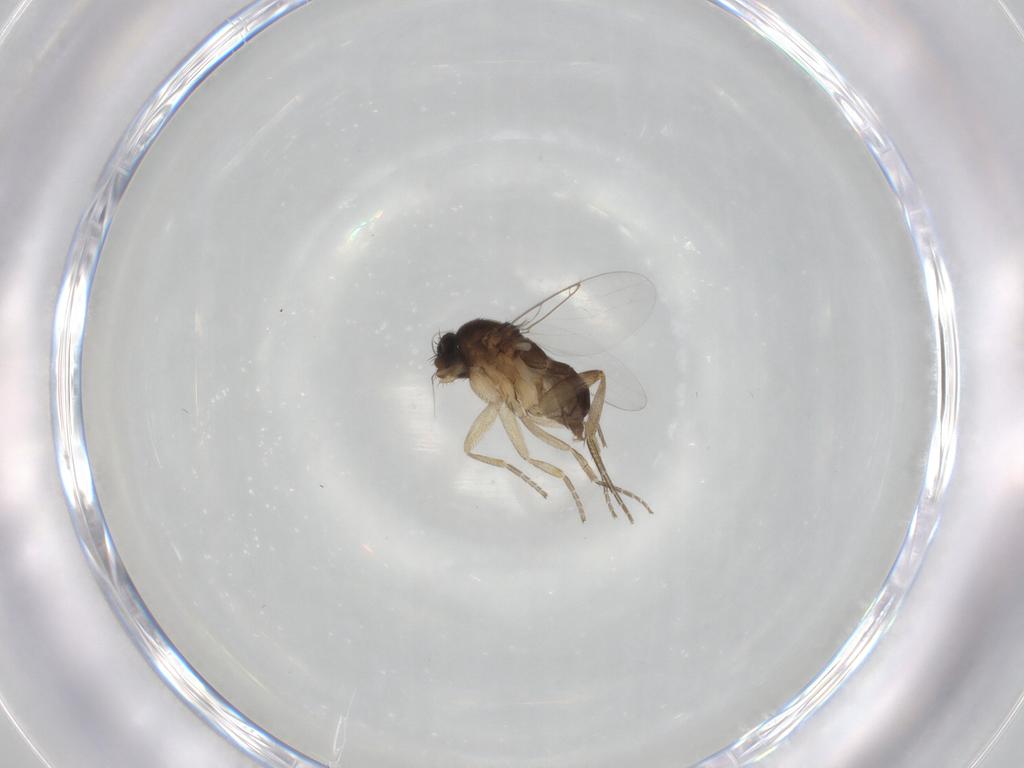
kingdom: Animalia
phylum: Arthropoda
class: Insecta
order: Diptera
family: Phoridae
